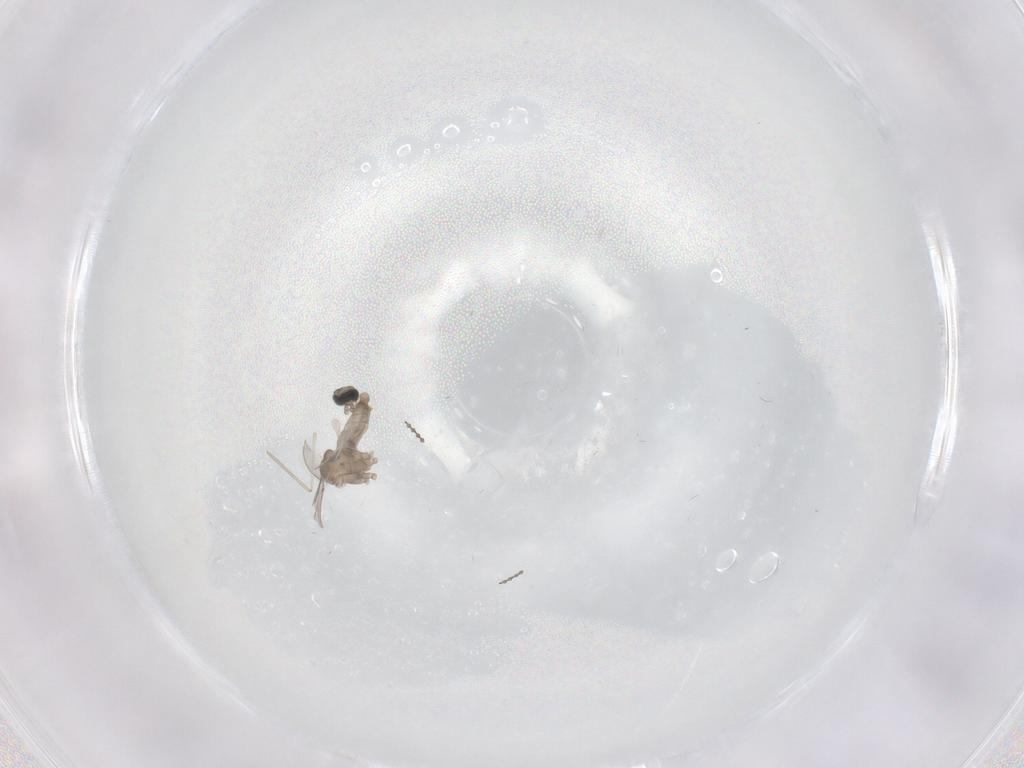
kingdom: Animalia
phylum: Arthropoda
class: Insecta
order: Diptera
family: Cecidomyiidae
